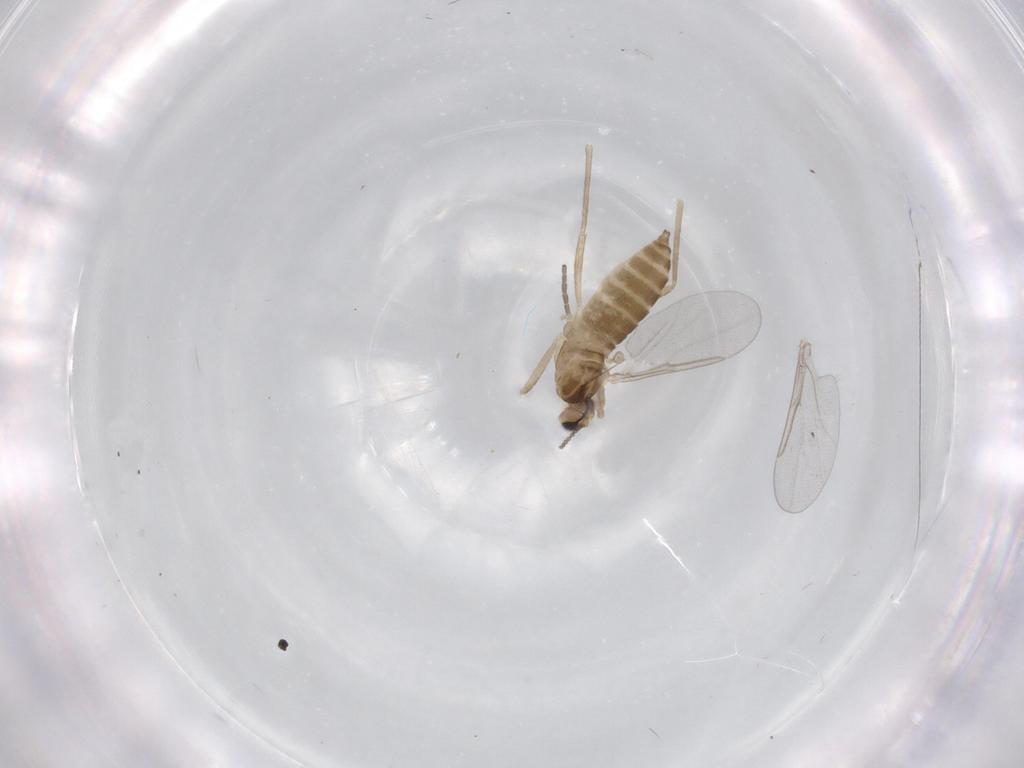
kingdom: Animalia
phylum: Arthropoda
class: Insecta
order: Diptera
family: Cecidomyiidae
